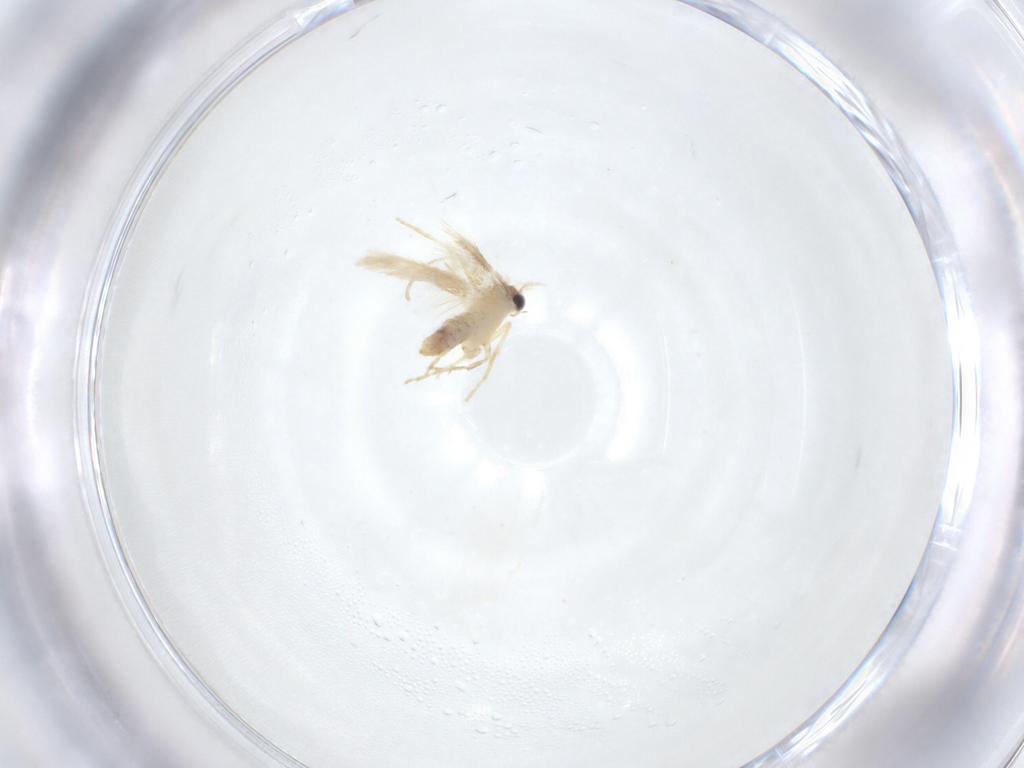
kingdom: Animalia
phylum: Arthropoda
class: Insecta
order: Lepidoptera
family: Nepticulidae
